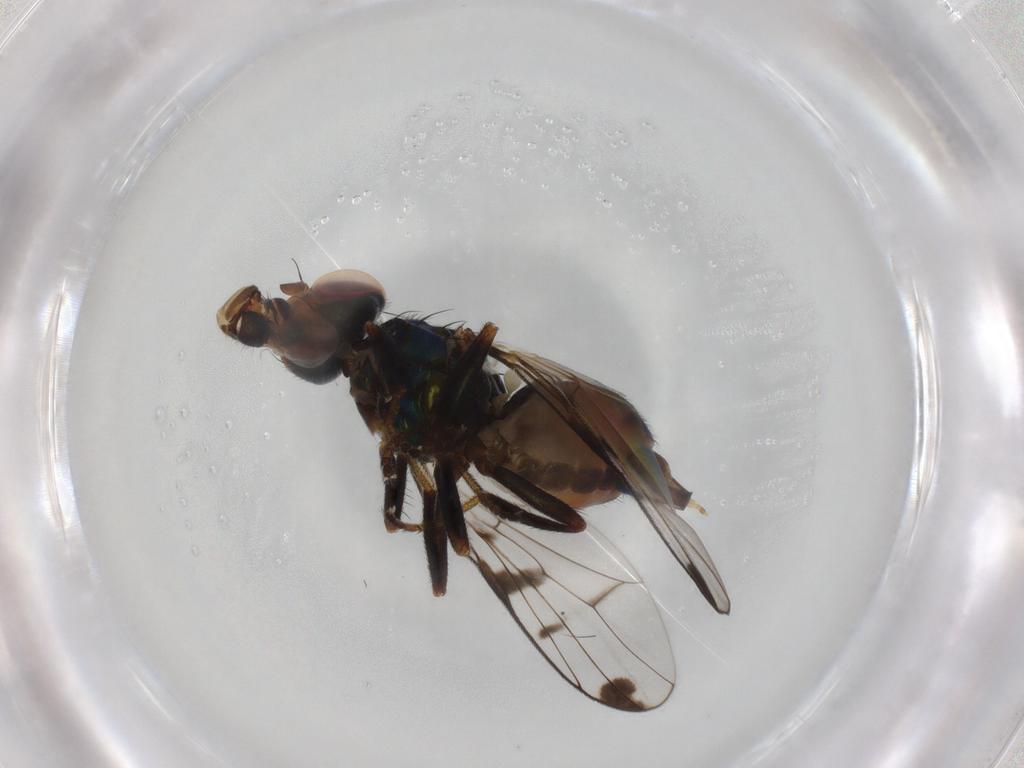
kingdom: Animalia
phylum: Arthropoda
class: Insecta
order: Diptera
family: Platystomatidae
